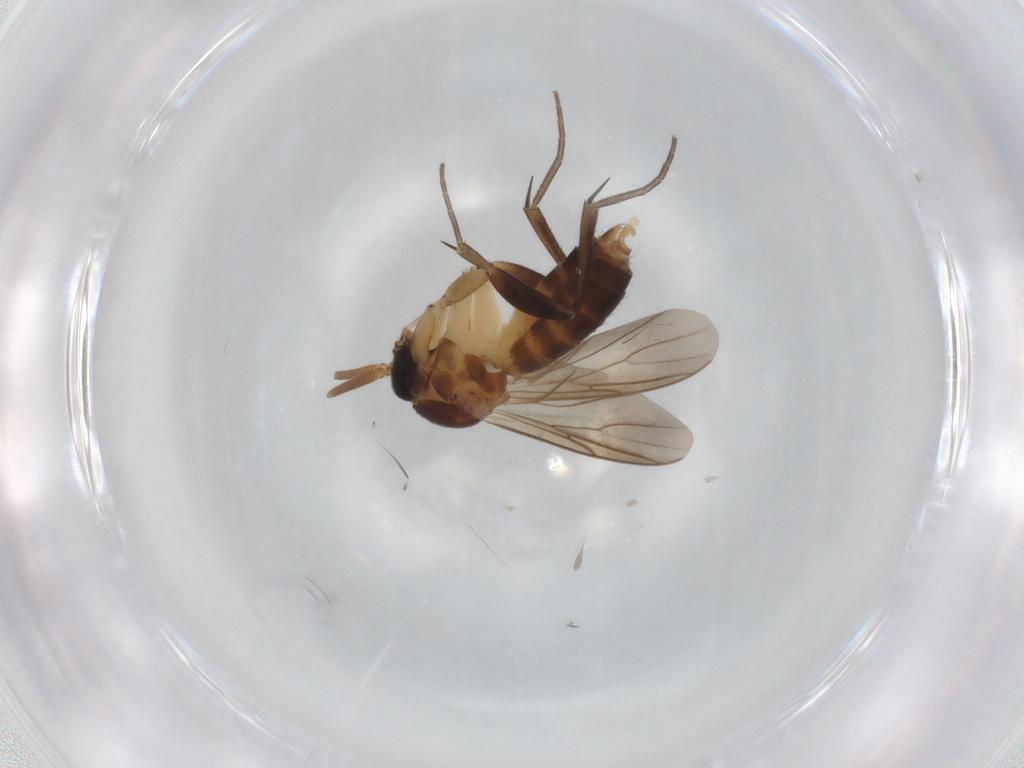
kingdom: Animalia
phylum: Arthropoda
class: Insecta
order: Diptera
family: Mycetophilidae
